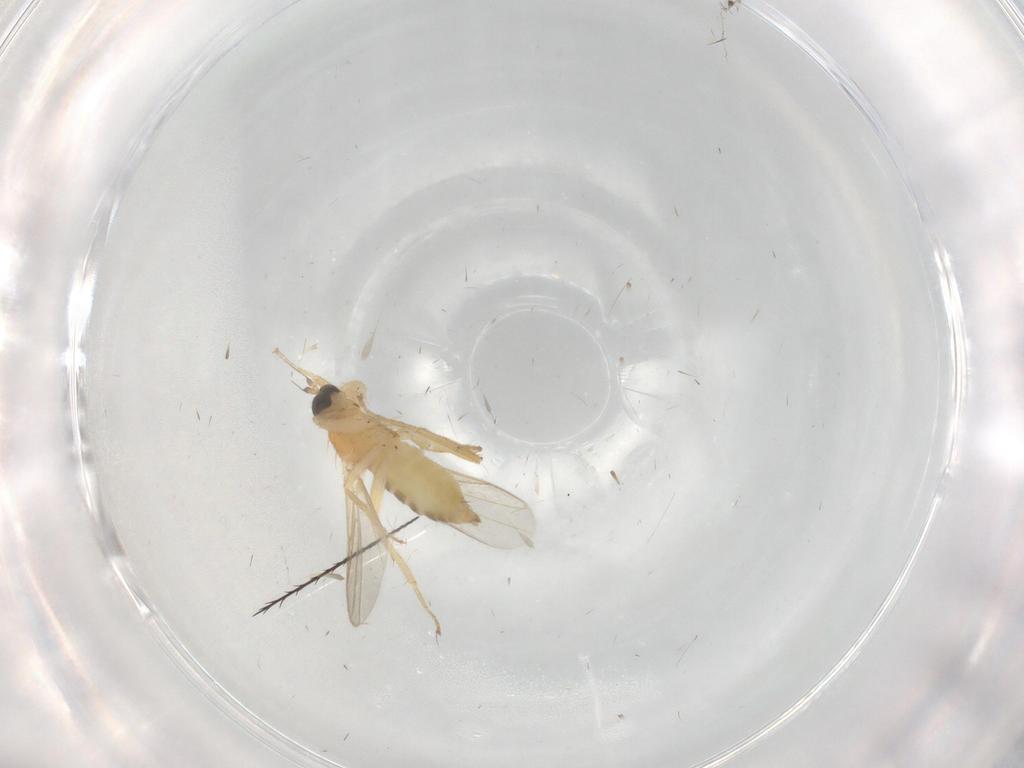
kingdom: Animalia
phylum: Arthropoda
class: Insecta
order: Diptera
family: Hybotidae
